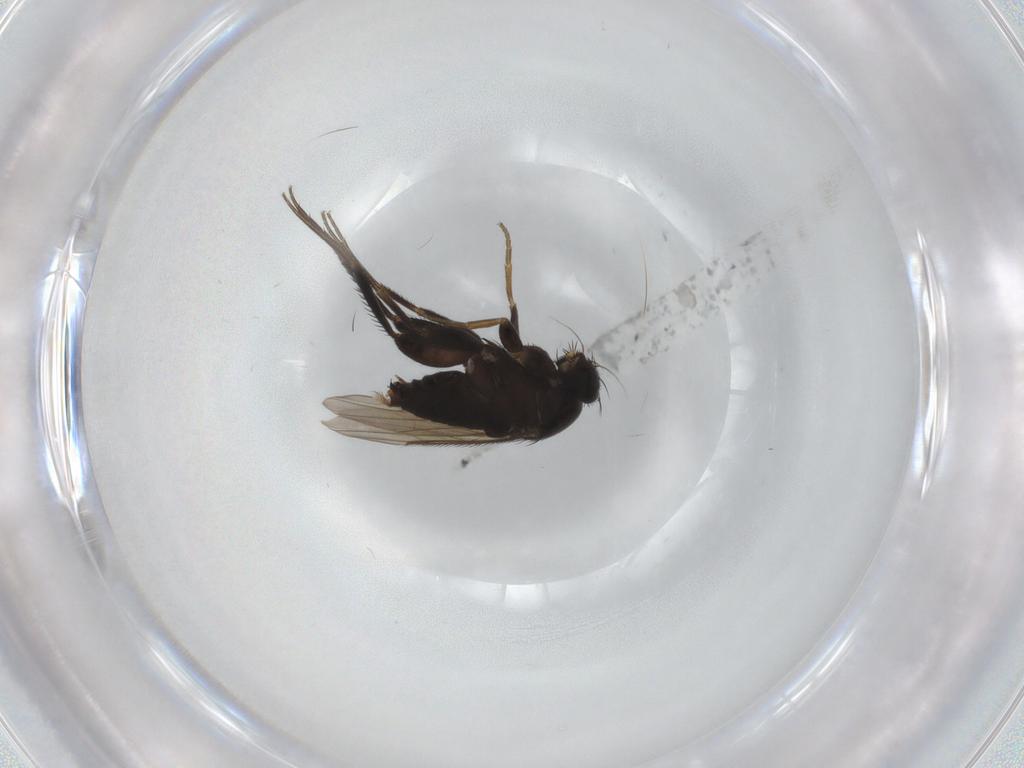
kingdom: Animalia
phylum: Arthropoda
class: Insecta
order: Diptera
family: Phoridae
